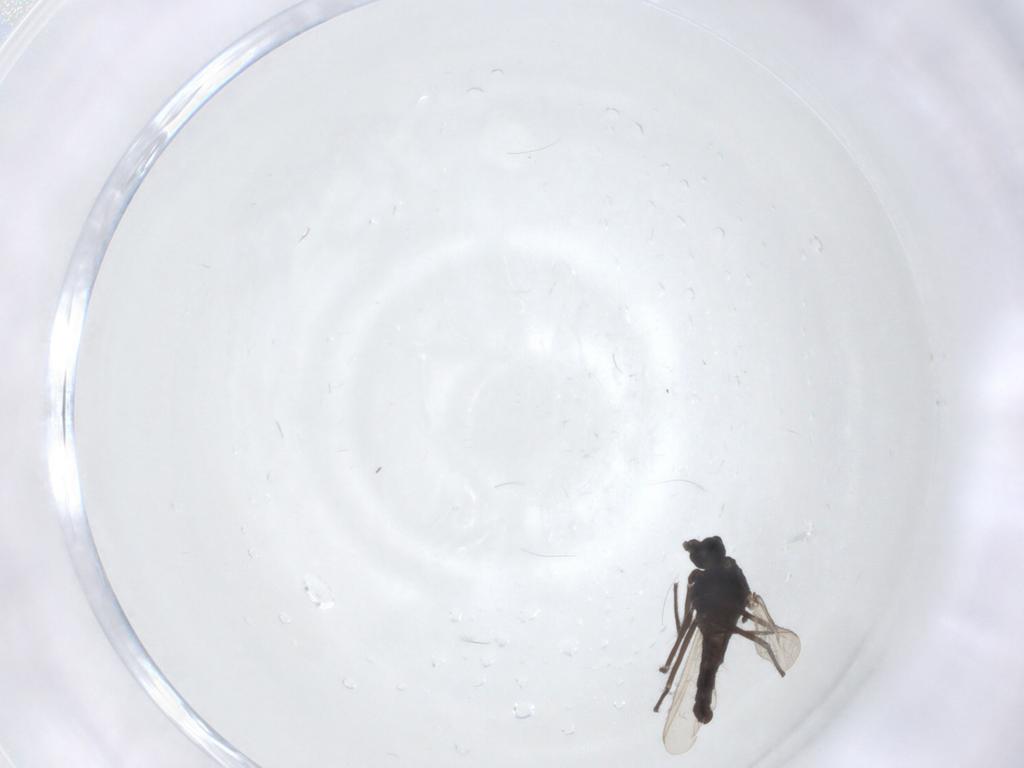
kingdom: Animalia
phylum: Arthropoda
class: Insecta
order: Diptera
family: Chironomidae
